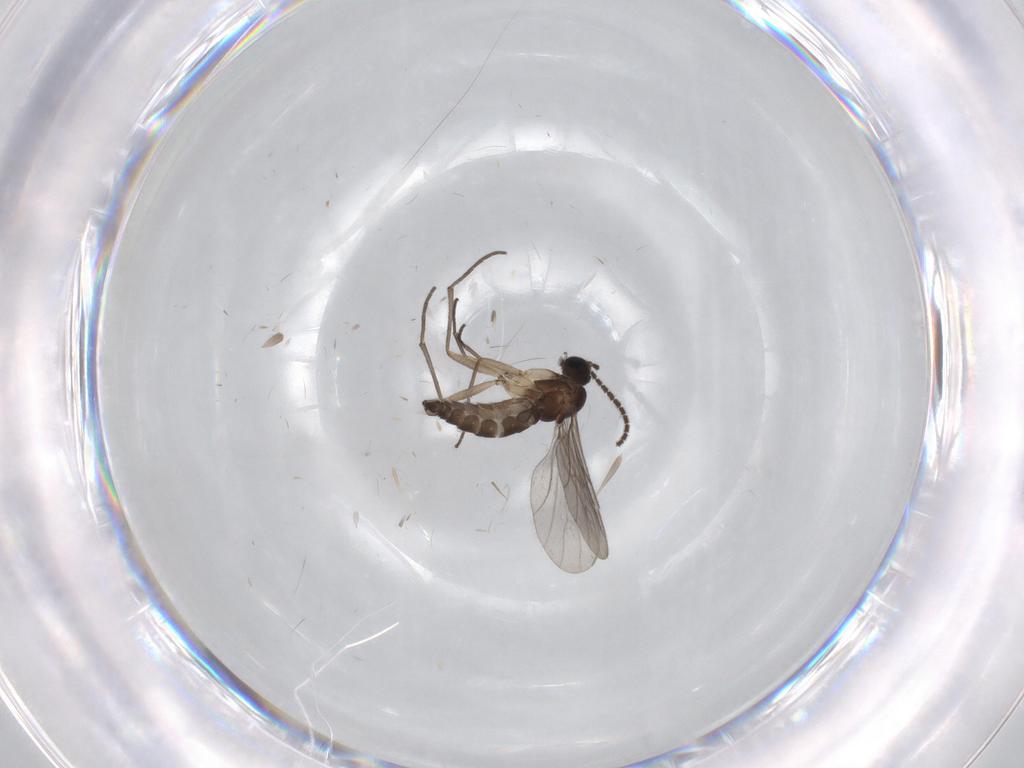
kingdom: Animalia
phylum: Arthropoda
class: Insecta
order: Diptera
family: Sciaridae
